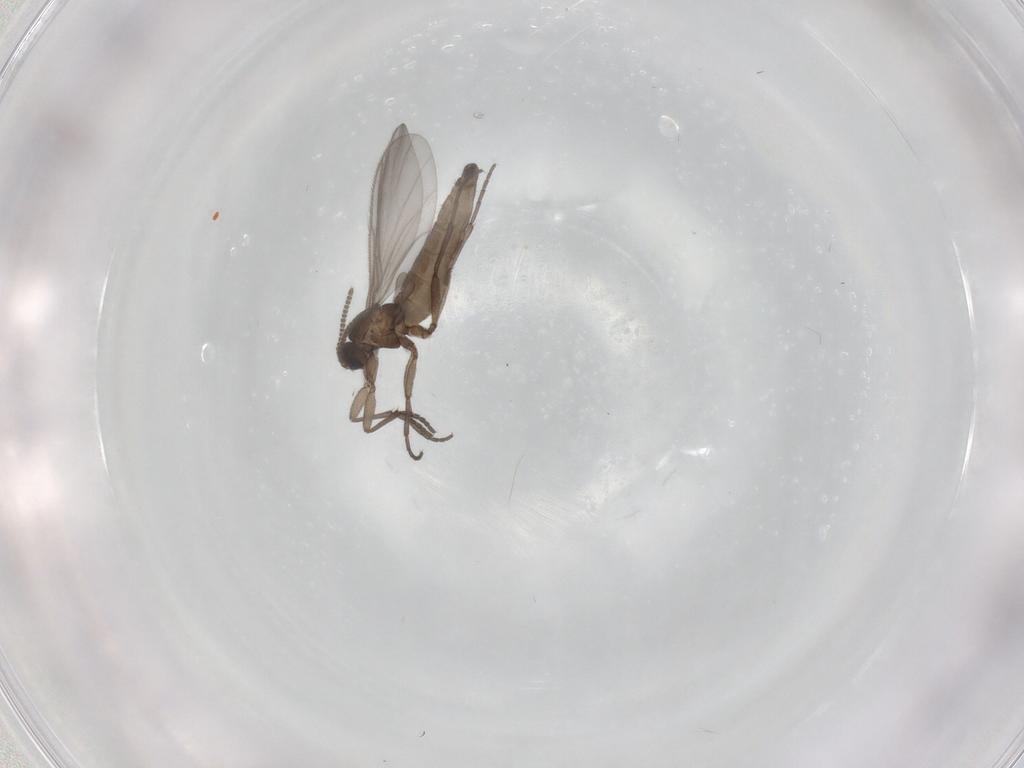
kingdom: Animalia
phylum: Arthropoda
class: Insecta
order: Diptera
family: Sciaridae
